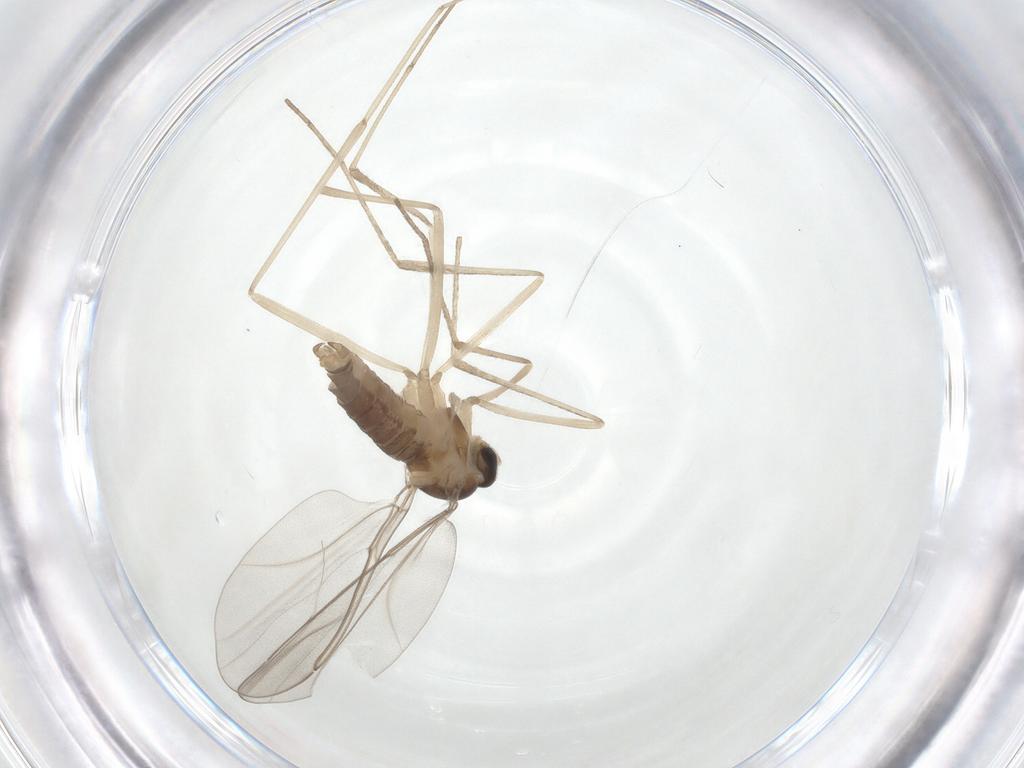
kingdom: Animalia
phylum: Arthropoda
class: Insecta
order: Diptera
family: Cecidomyiidae
